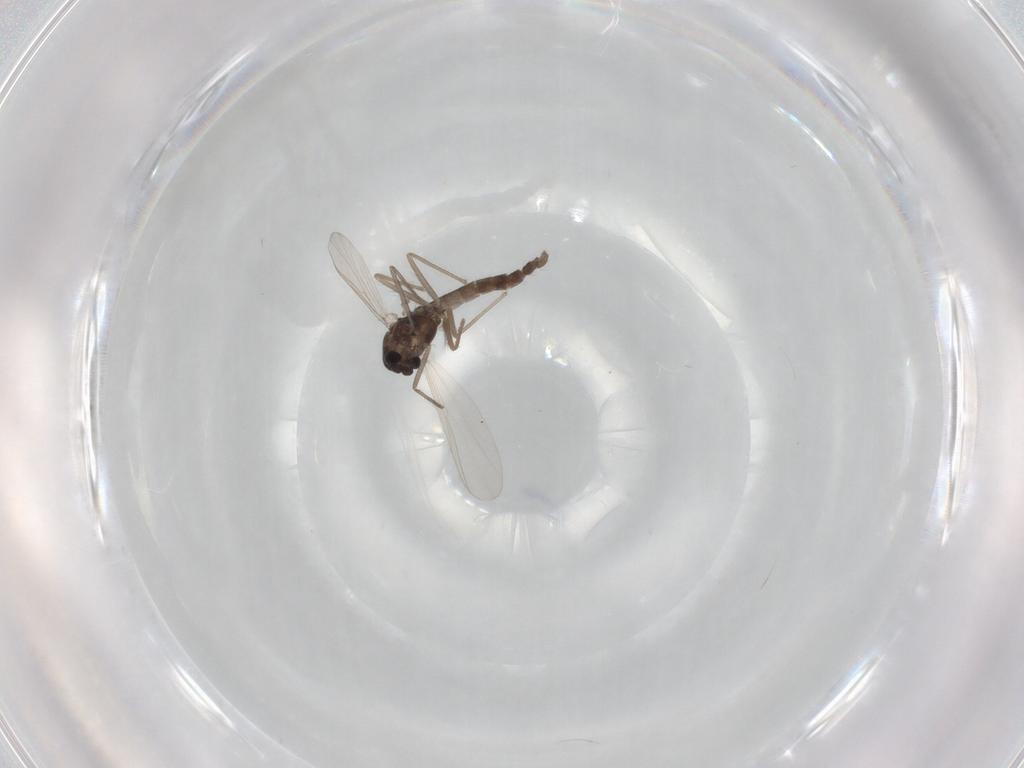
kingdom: Animalia
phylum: Arthropoda
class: Insecta
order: Diptera
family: Chironomidae
